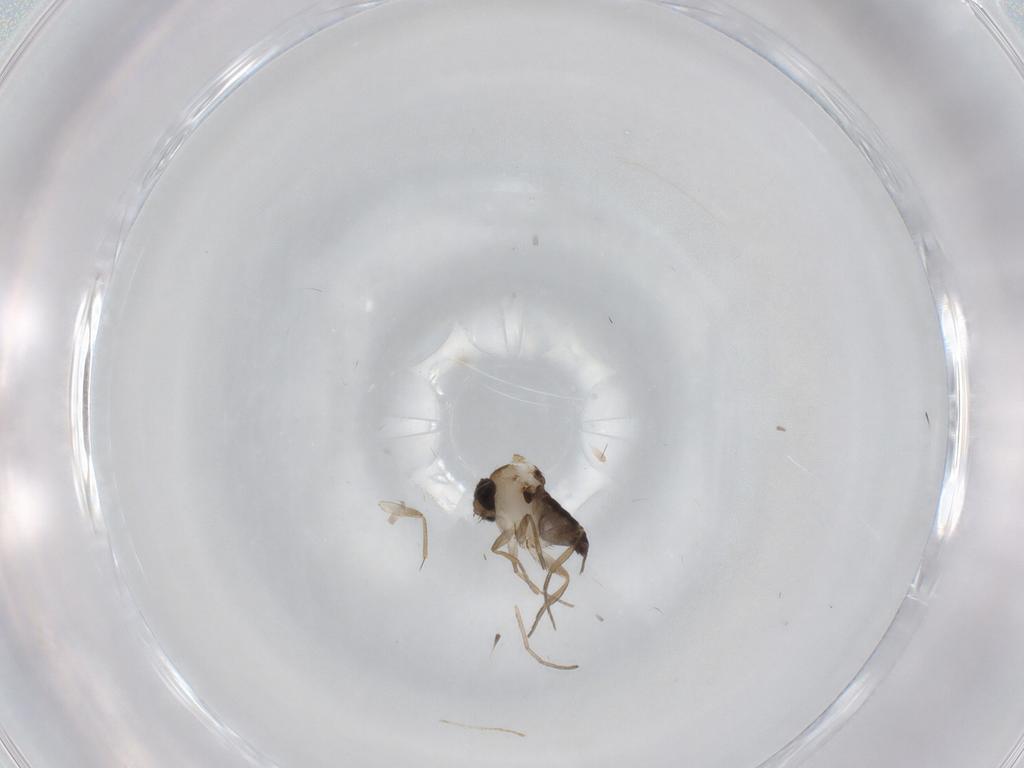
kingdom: Animalia
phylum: Arthropoda
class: Insecta
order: Diptera
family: Phoridae
